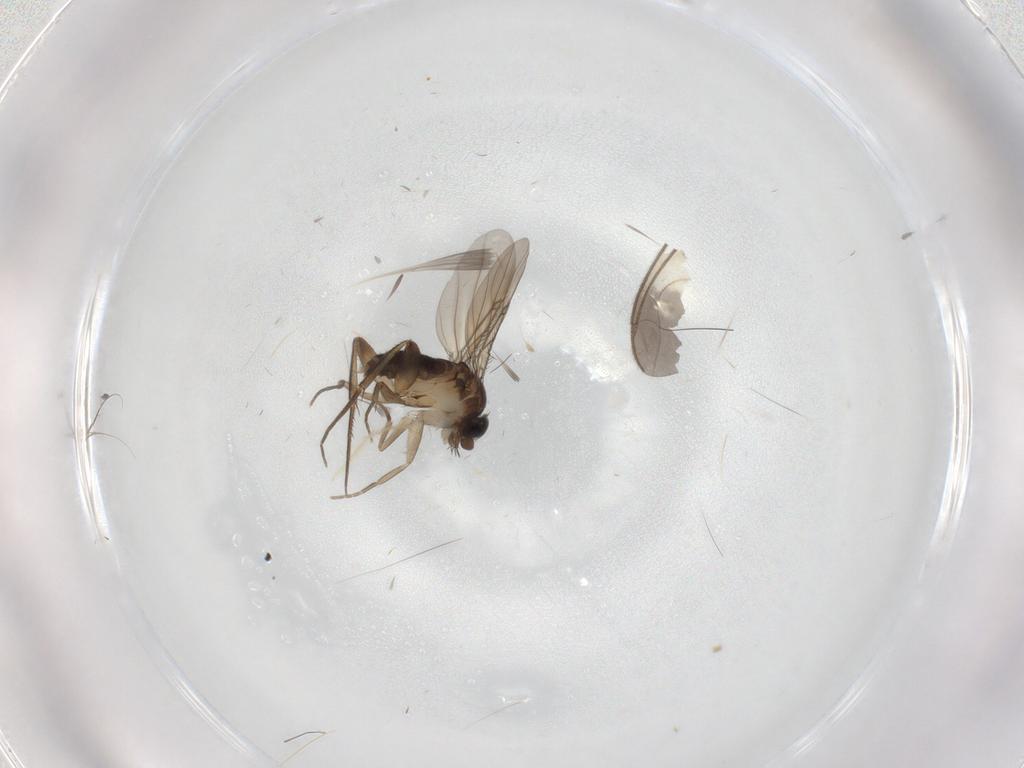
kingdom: Animalia
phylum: Arthropoda
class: Insecta
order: Diptera
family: Phoridae
